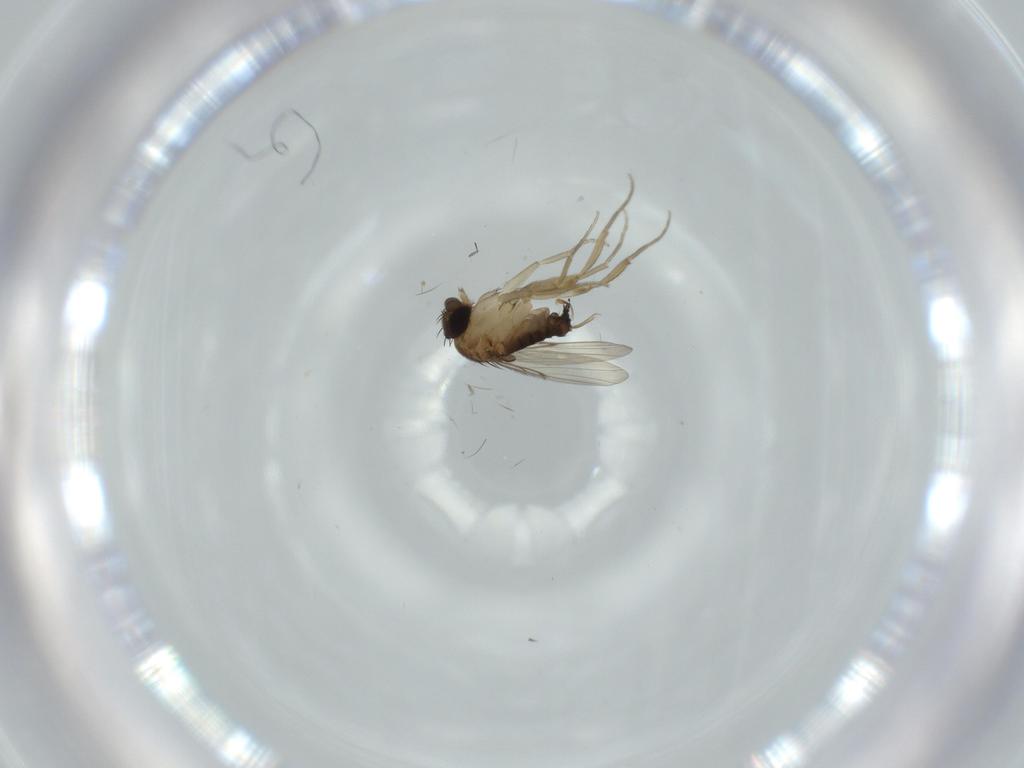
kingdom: Animalia
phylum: Arthropoda
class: Insecta
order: Diptera
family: Phoridae
